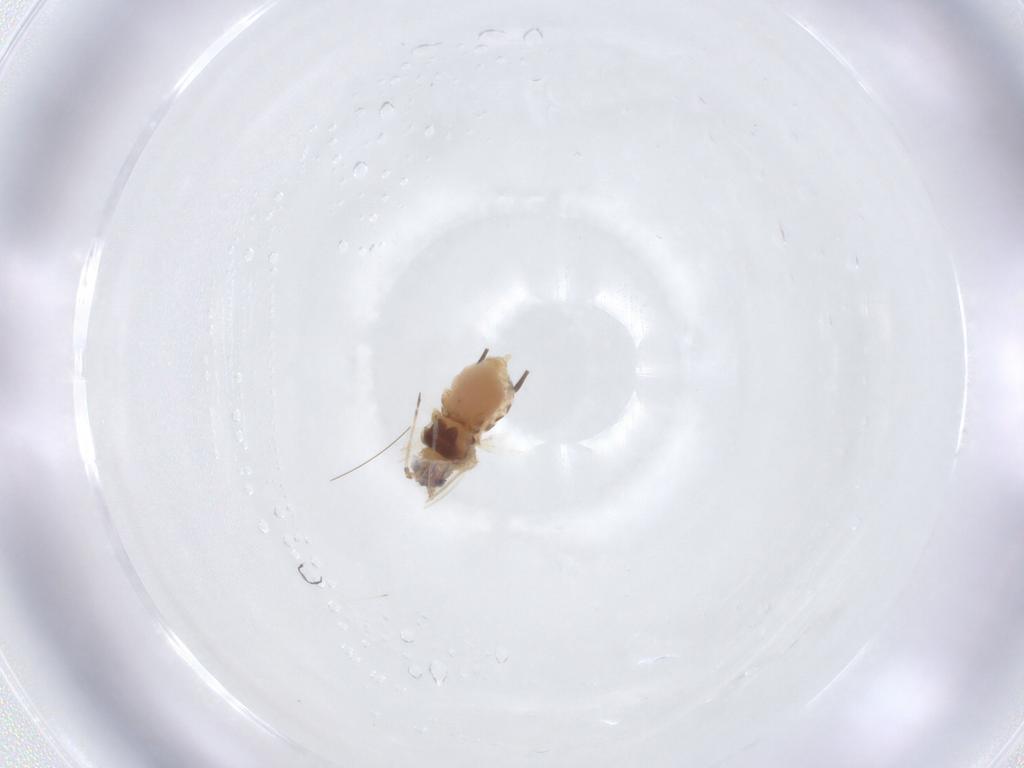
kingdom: Animalia
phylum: Arthropoda
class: Insecta
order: Hemiptera
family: Aphididae
